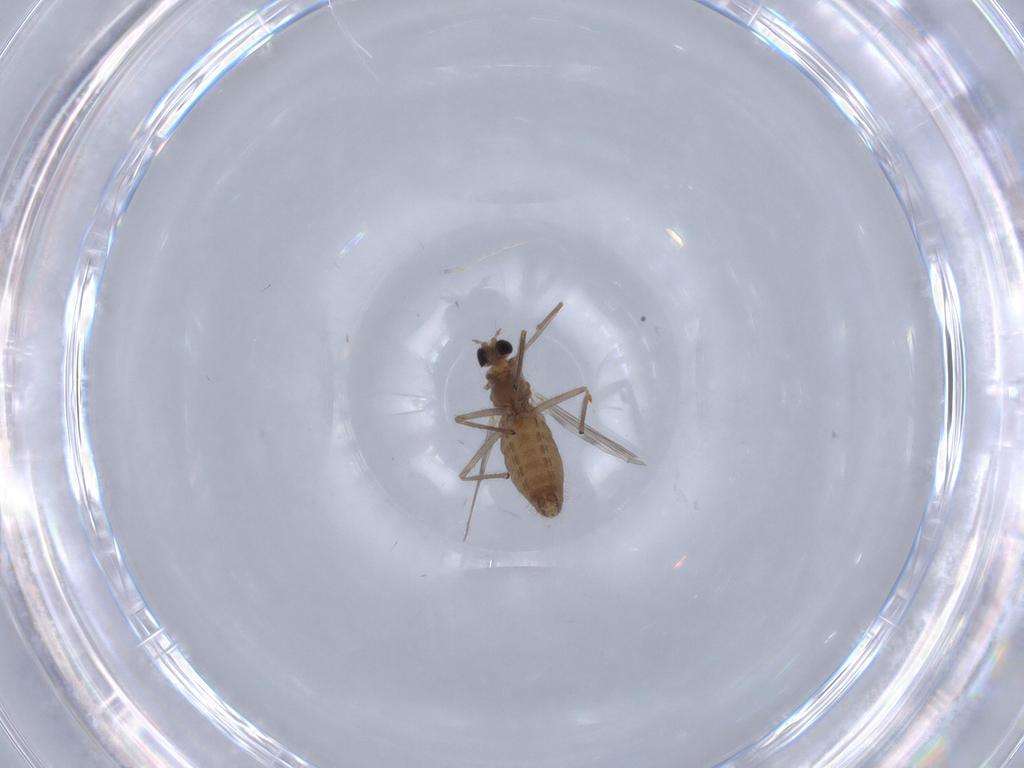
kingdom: Animalia
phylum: Arthropoda
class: Insecta
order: Diptera
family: Chironomidae
